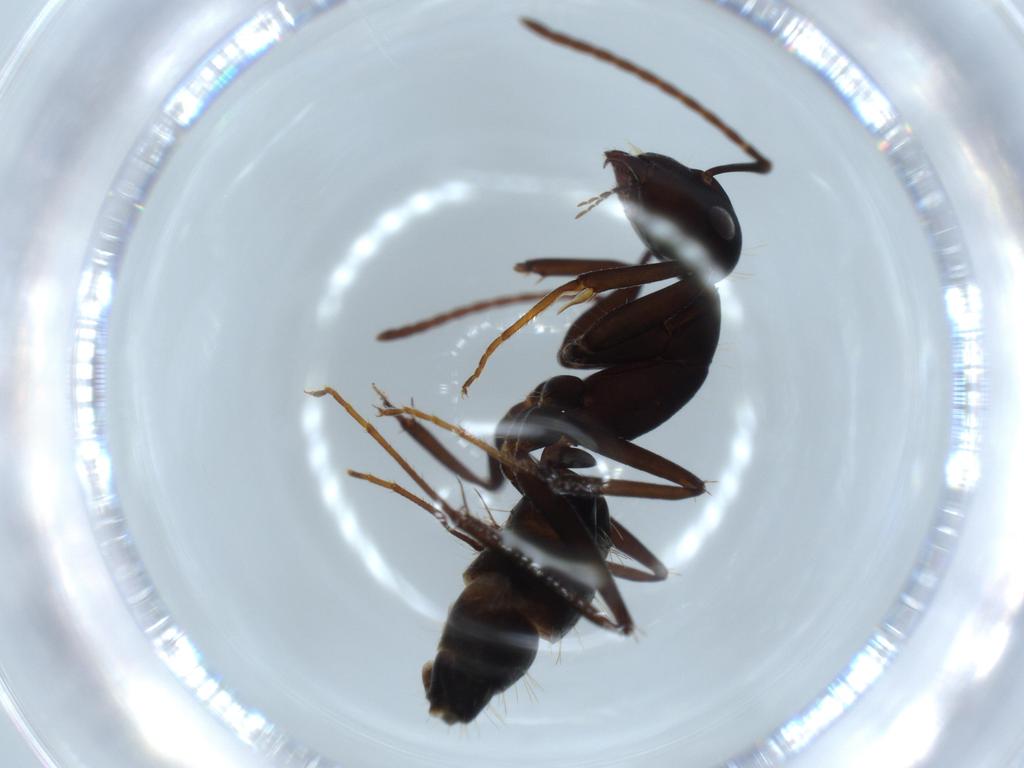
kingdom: Animalia
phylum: Arthropoda
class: Insecta
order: Hymenoptera
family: Formicidae
